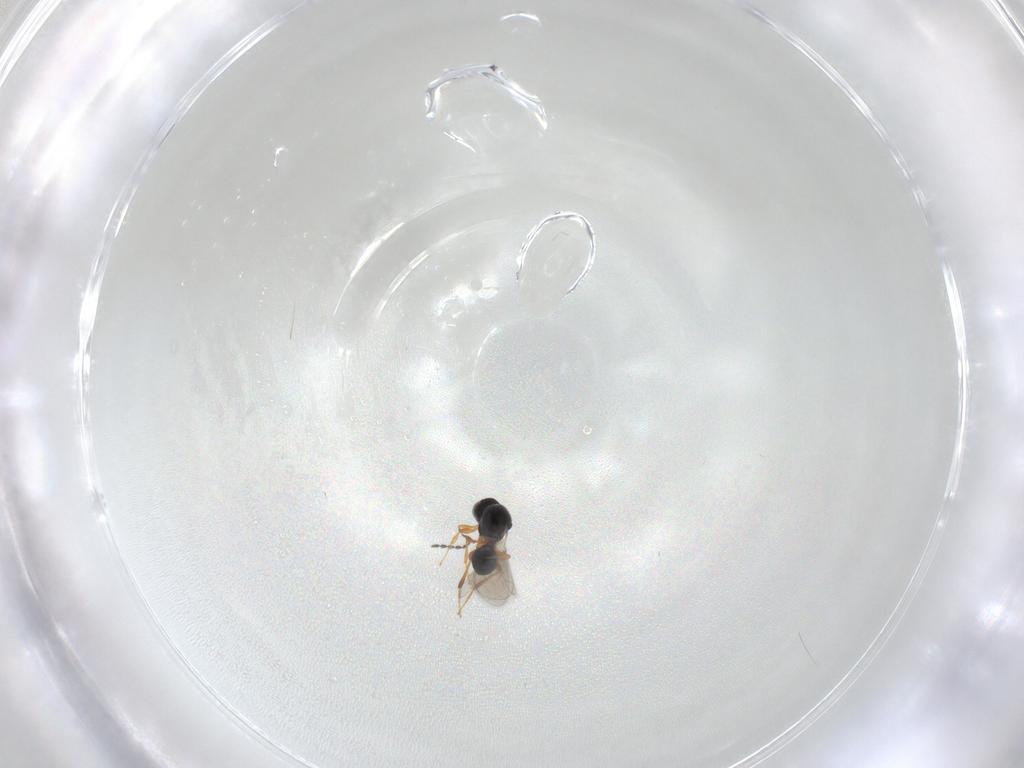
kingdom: Animalia
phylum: Arthropoda
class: Insecta
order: Hymenoptera
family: Platygastridae
